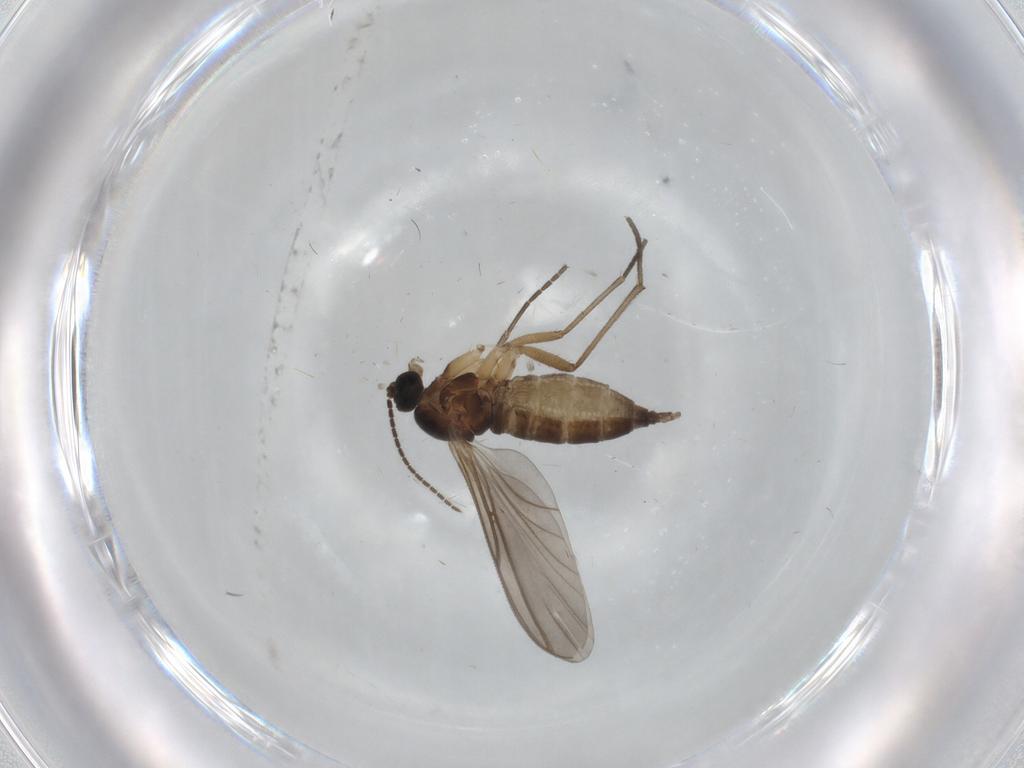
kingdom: Animalia
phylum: Arthropoda
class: Insecta
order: Diptera
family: Sciaridae
